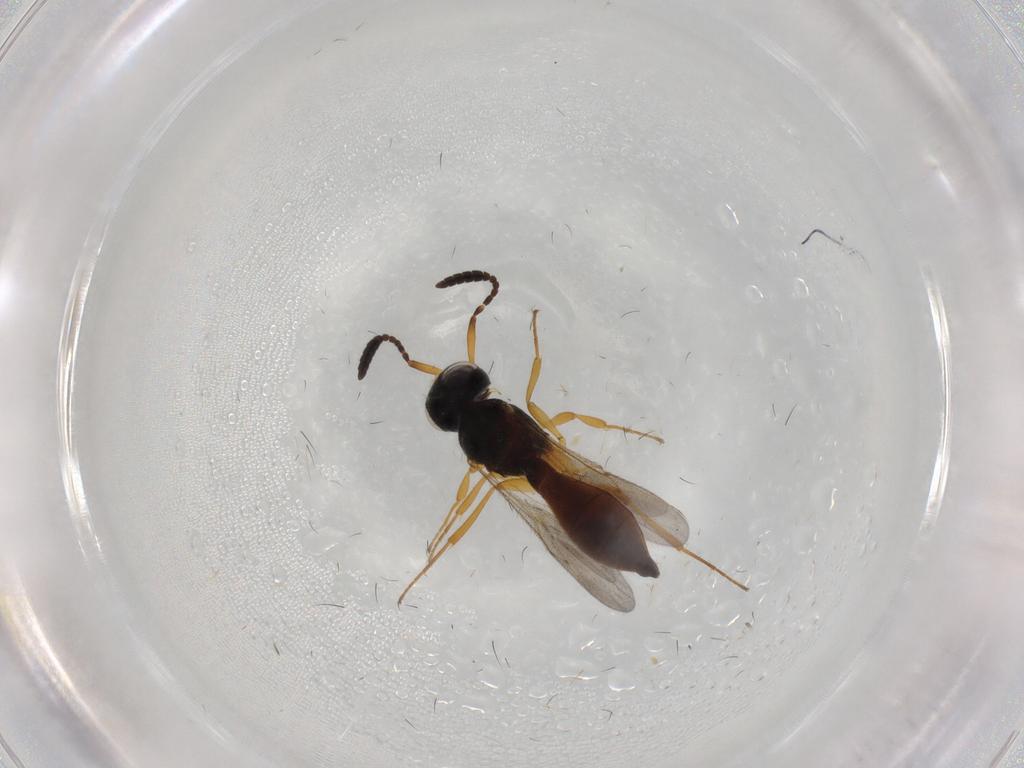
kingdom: Animalia
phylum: Arthropoda
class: Insecta
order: Hymenoptera
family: Scelionidae
